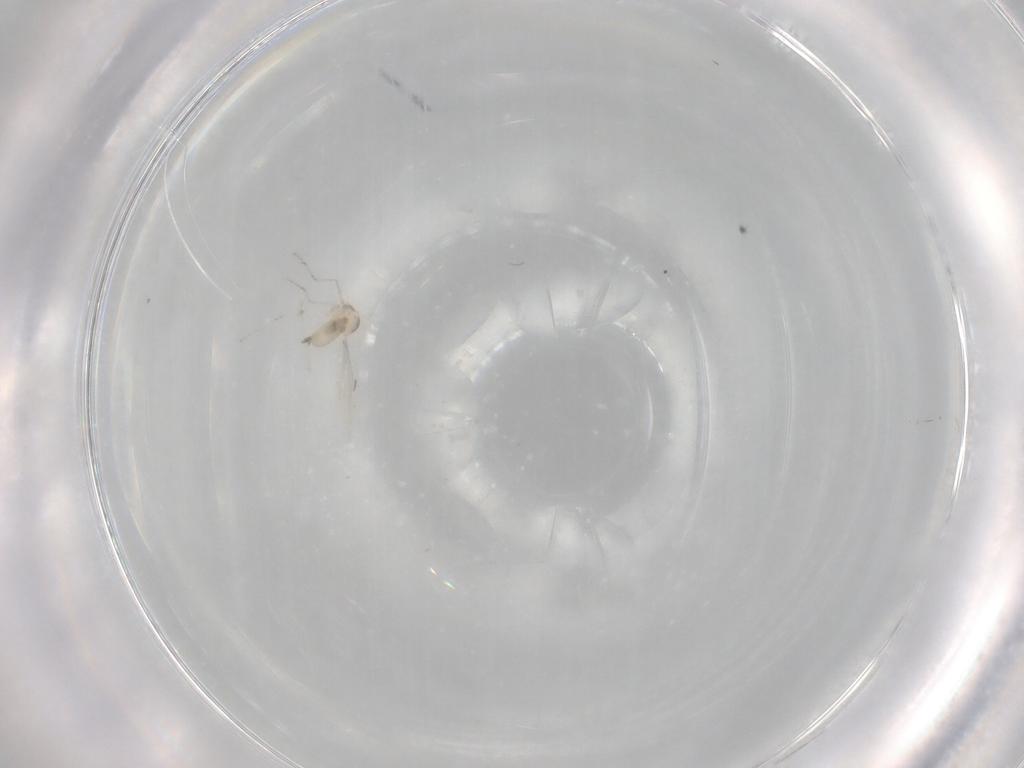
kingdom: Animalia
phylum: Arthropoda
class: Insecta
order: Diptera
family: Cecidomyiidae
